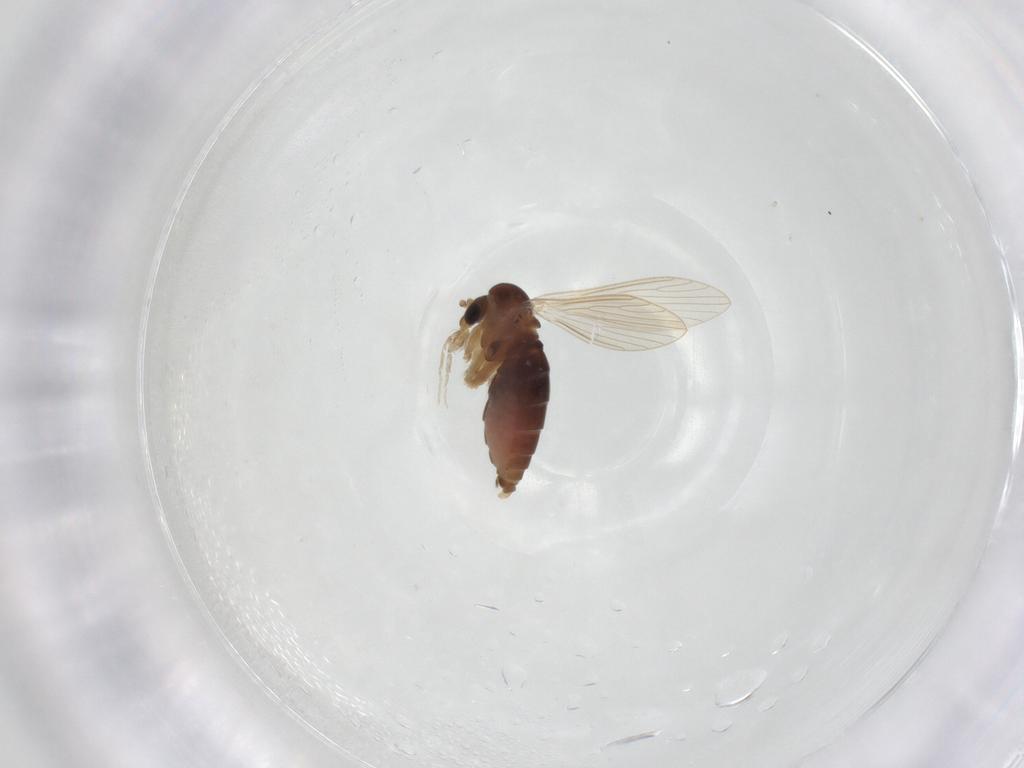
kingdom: Animalia
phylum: Arthropoda
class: Insecta
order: Diptera
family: Psychodidae
